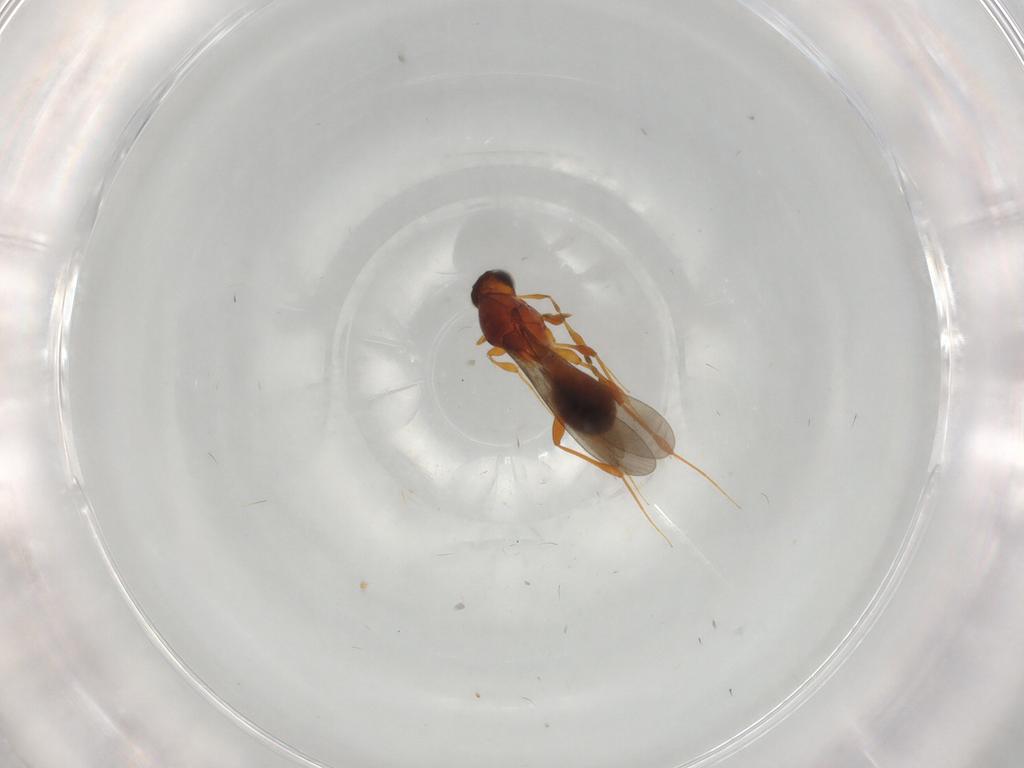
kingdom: Animalia
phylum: Arthropoda
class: Insecta
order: Hymenoptera
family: Platygastridae
